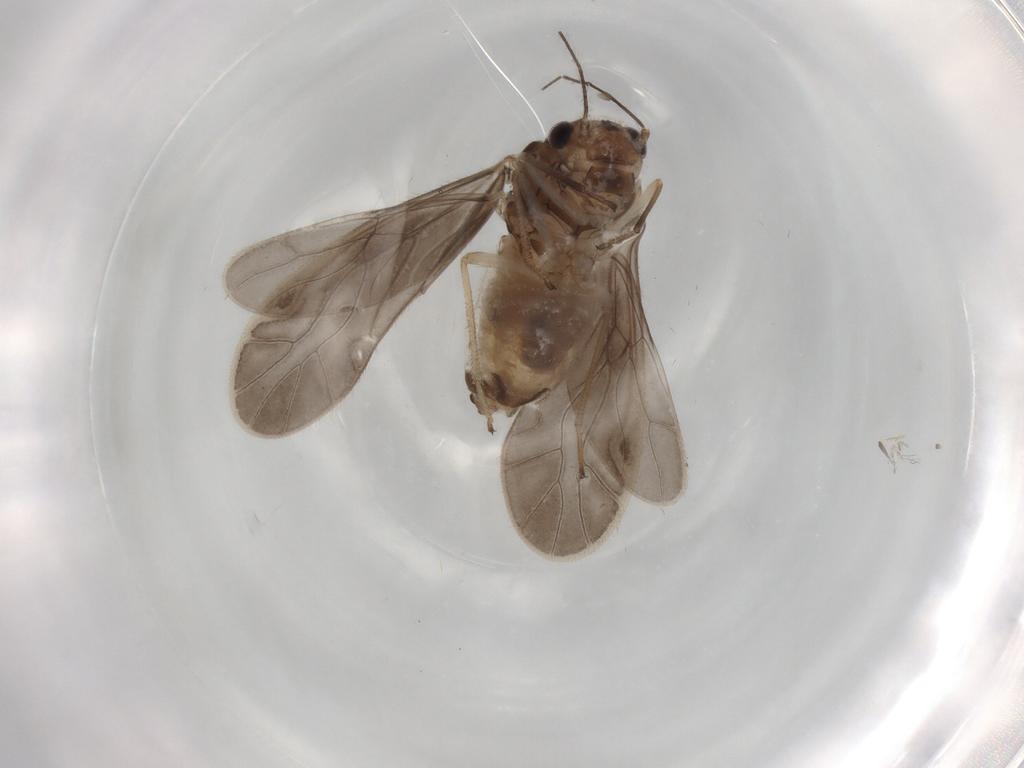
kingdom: Animalia
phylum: Arthropoda
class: Insecta
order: Psocodea
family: Caeciliusidae
